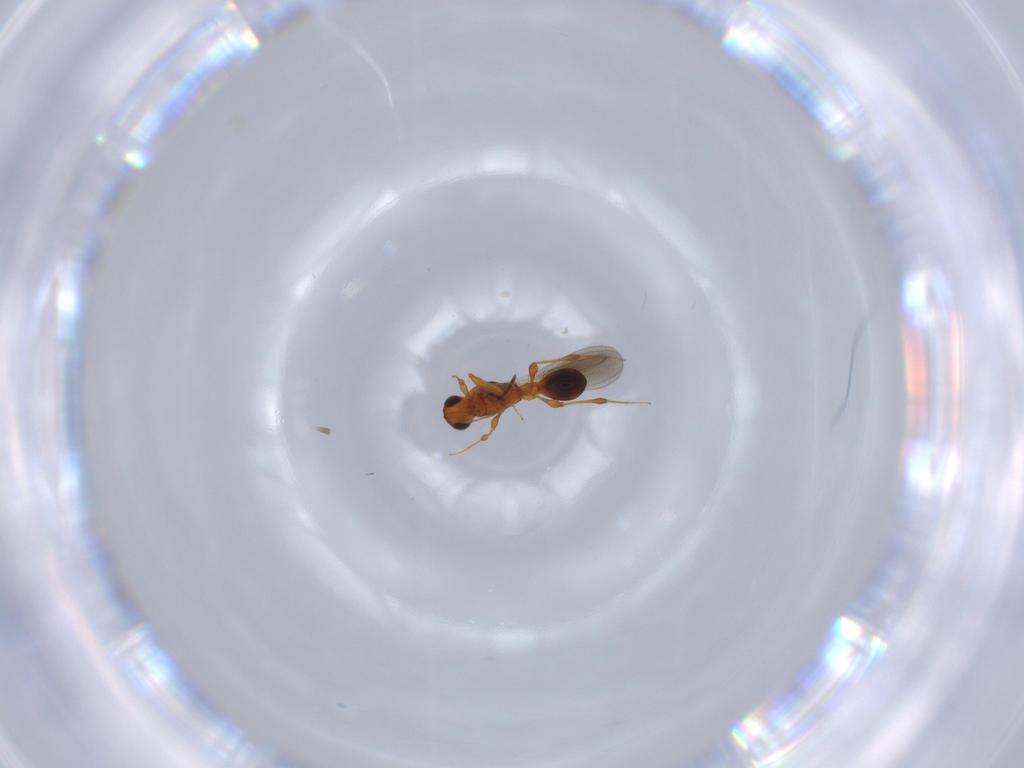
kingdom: Animalia
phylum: Arthropoda
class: Insecta
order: Hymenoptera
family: Platygastridae
